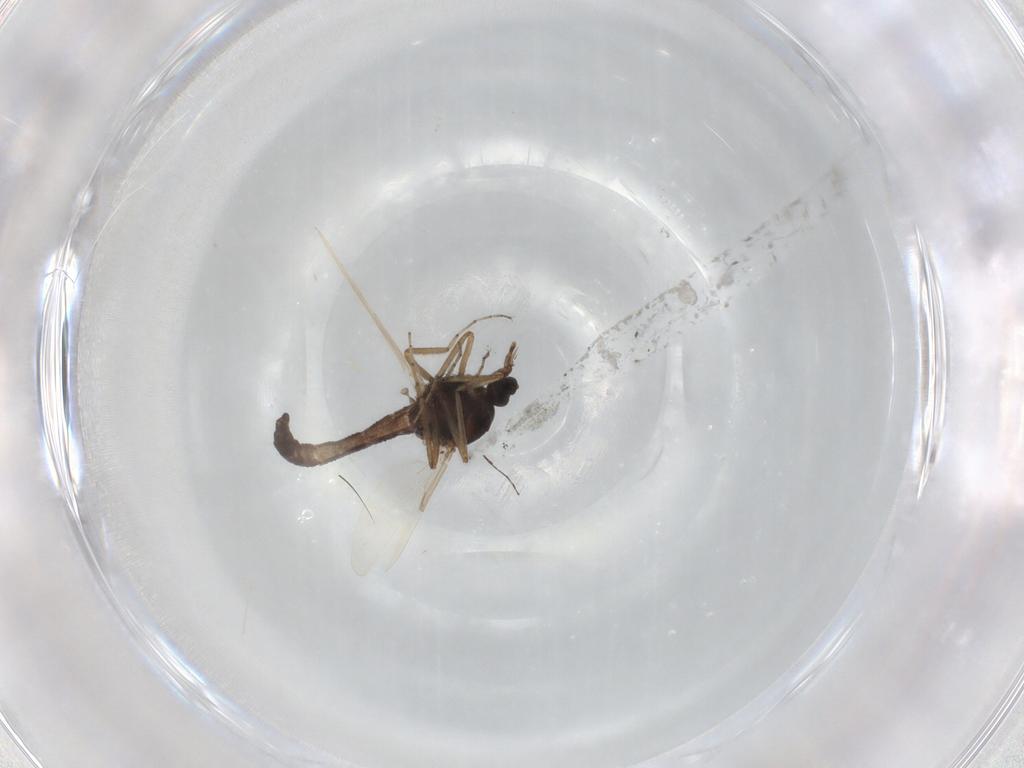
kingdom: Animalia
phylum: Arthropoda
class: Insecta
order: Diptera
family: Ceratopogonidae
